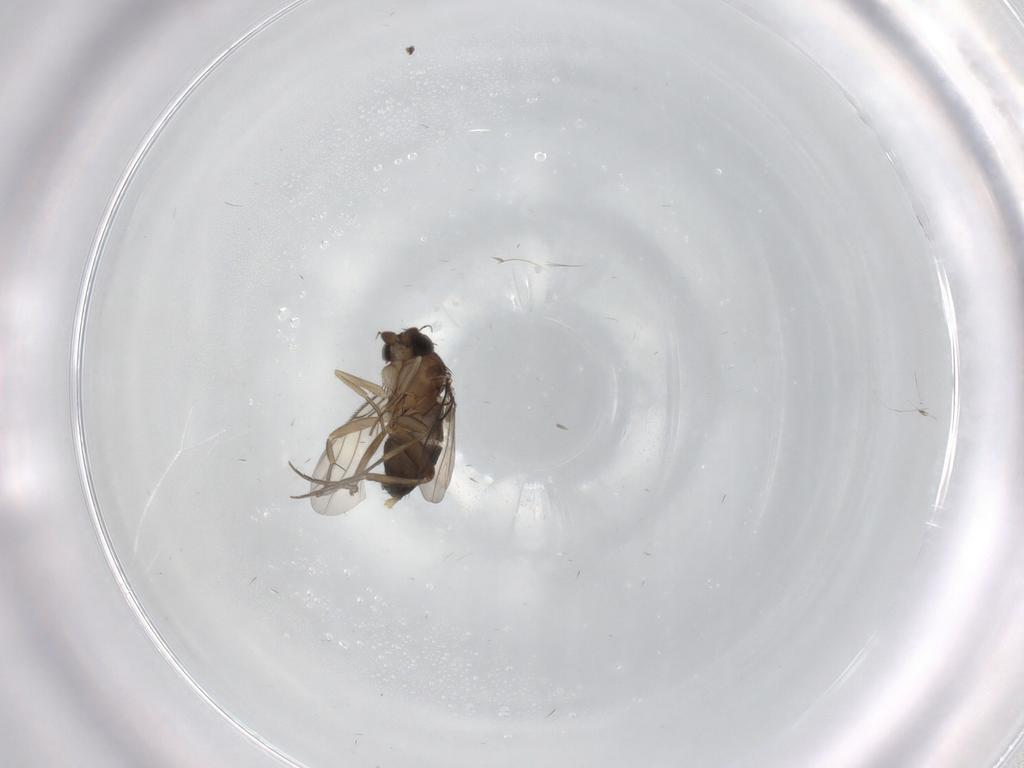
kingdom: Animalia
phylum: Arthropoda
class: Insecta
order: Diptera
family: Phoridae
